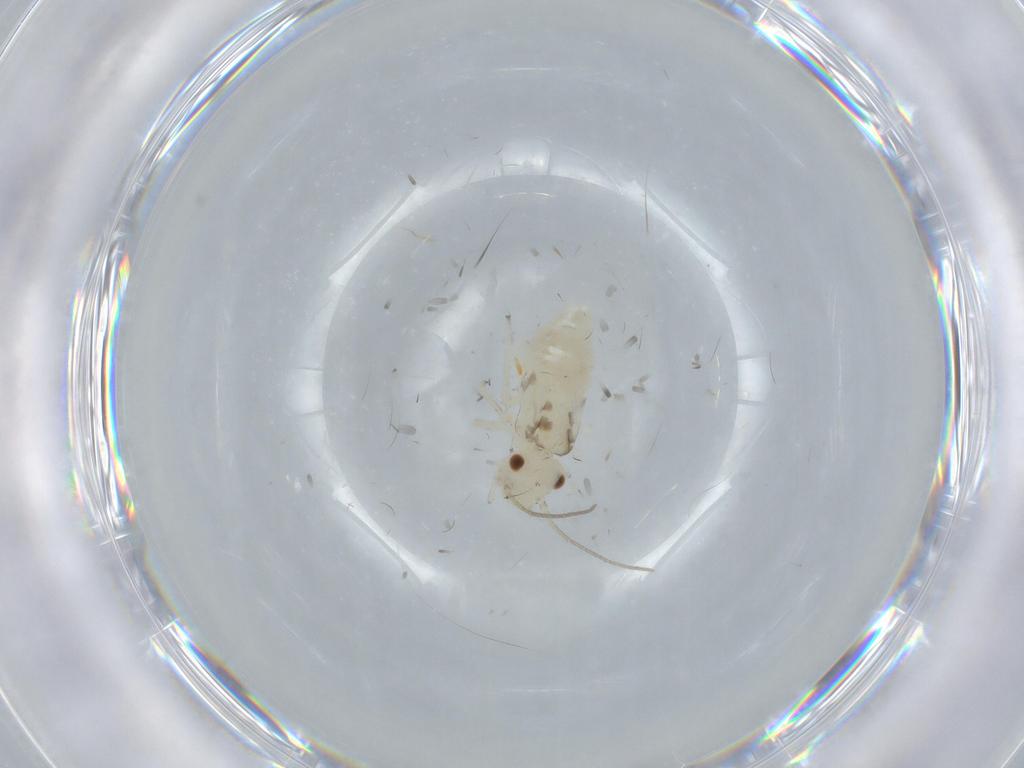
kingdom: Animalia
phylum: Arthropoda
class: Insecta
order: Psocodea
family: Caeciliusidae
